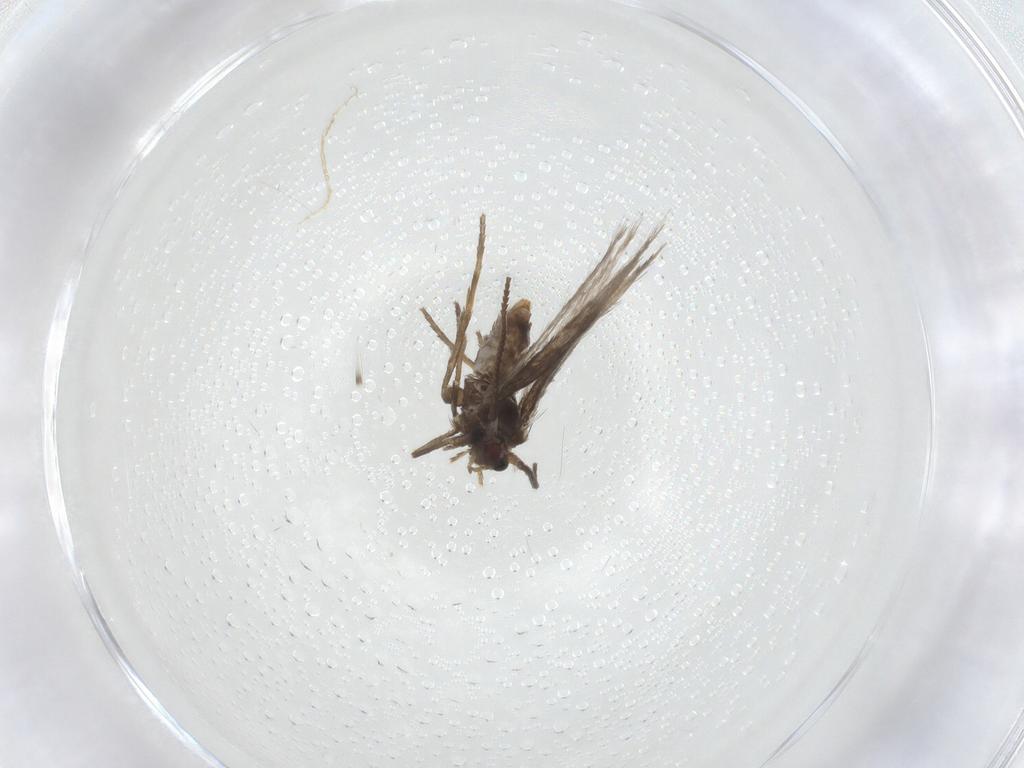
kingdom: Animalia
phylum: Arthropoda
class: Insecta
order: Lepidoptera
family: Nepticulidae
